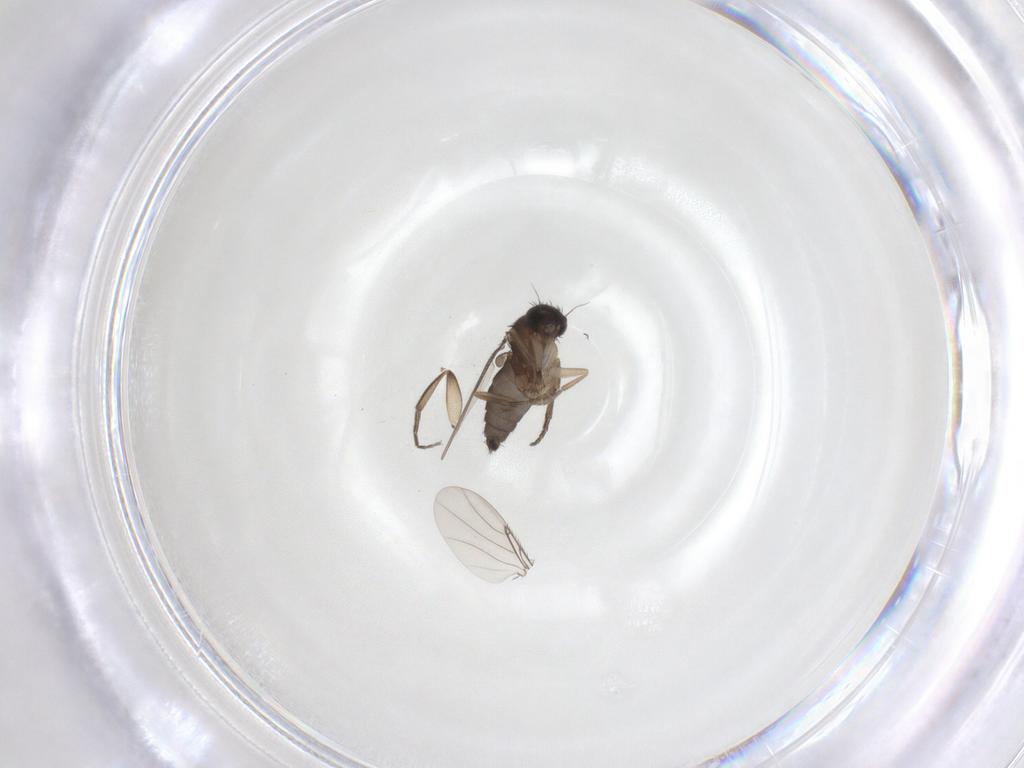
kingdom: Animalia
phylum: Arthropoda
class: Insecta
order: Diptera
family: Phoridae
